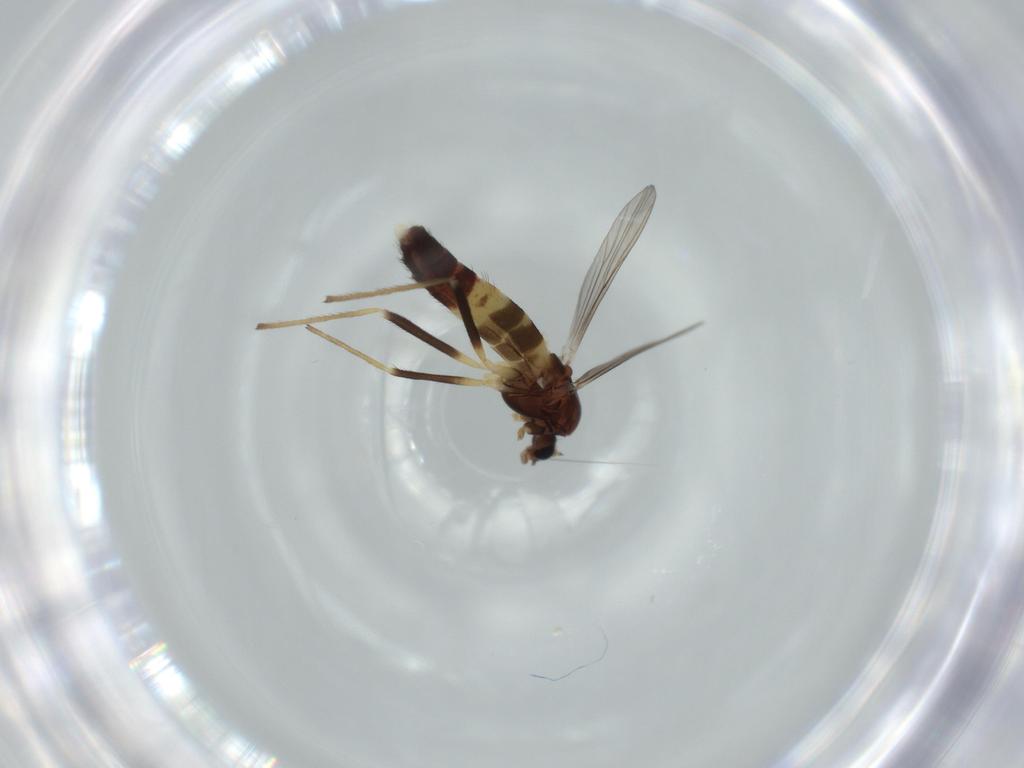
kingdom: Animalia
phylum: Arthropoda
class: Insecta
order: Diptera
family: Chironomidae
